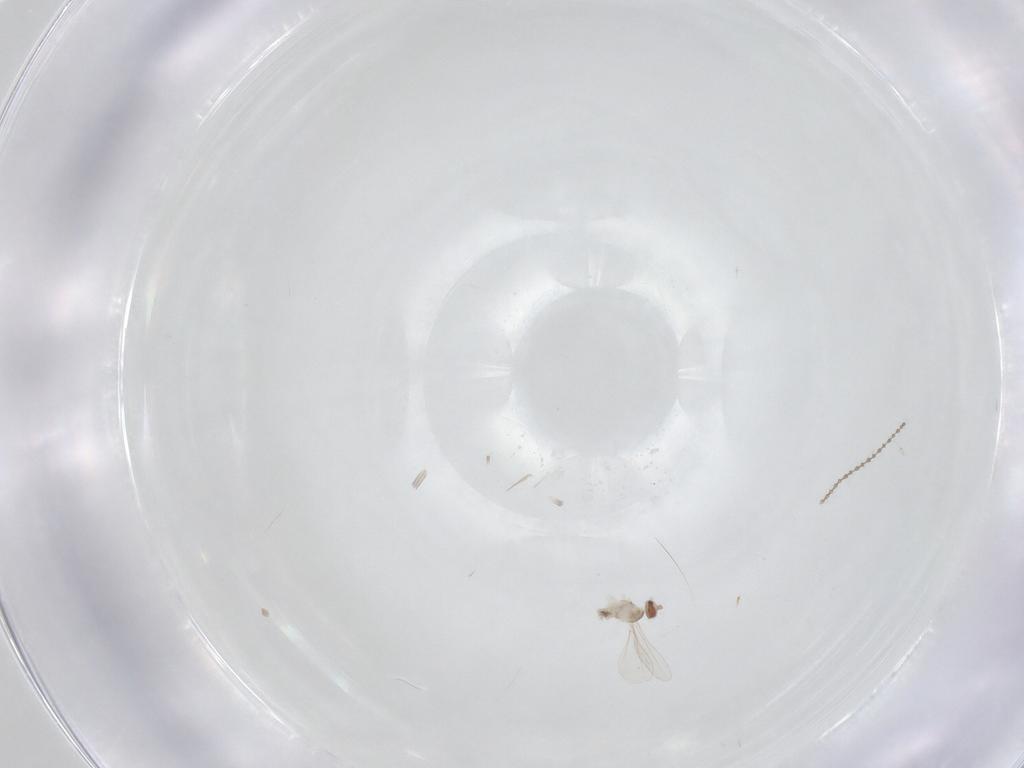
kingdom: Animalia
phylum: Arthropoda
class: Insecta
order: Diptera
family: Cecidomyiidae
